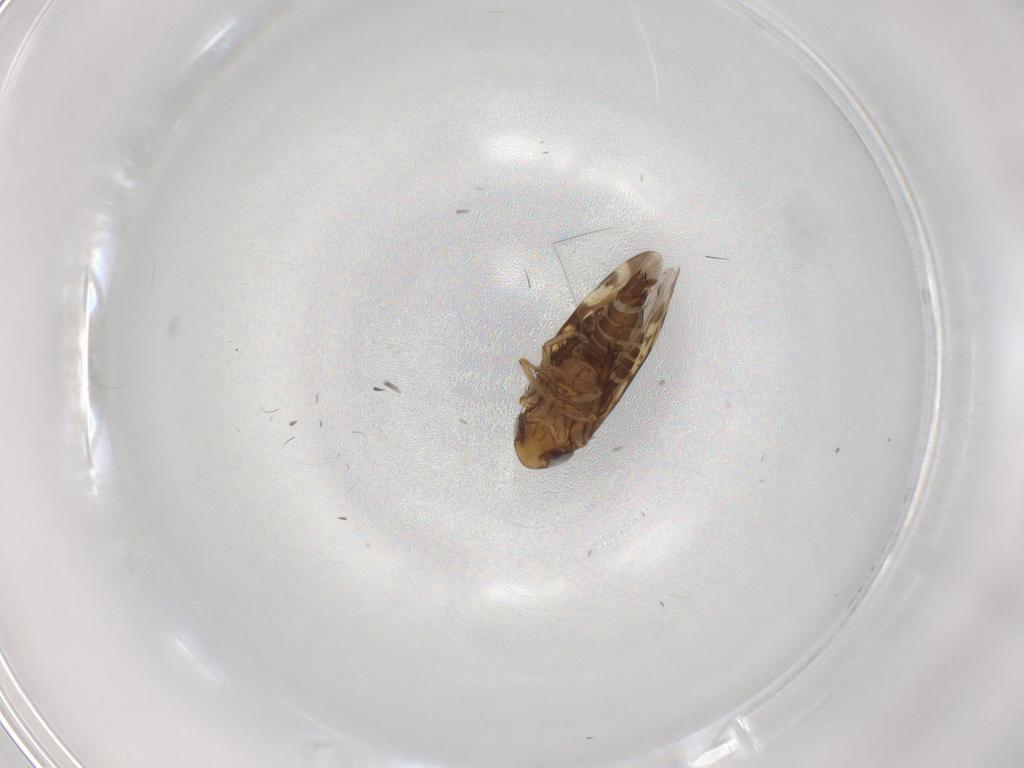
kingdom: Animalia
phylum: Arthropoda
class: Insecta
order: Hemiptera
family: Cicadellidae
